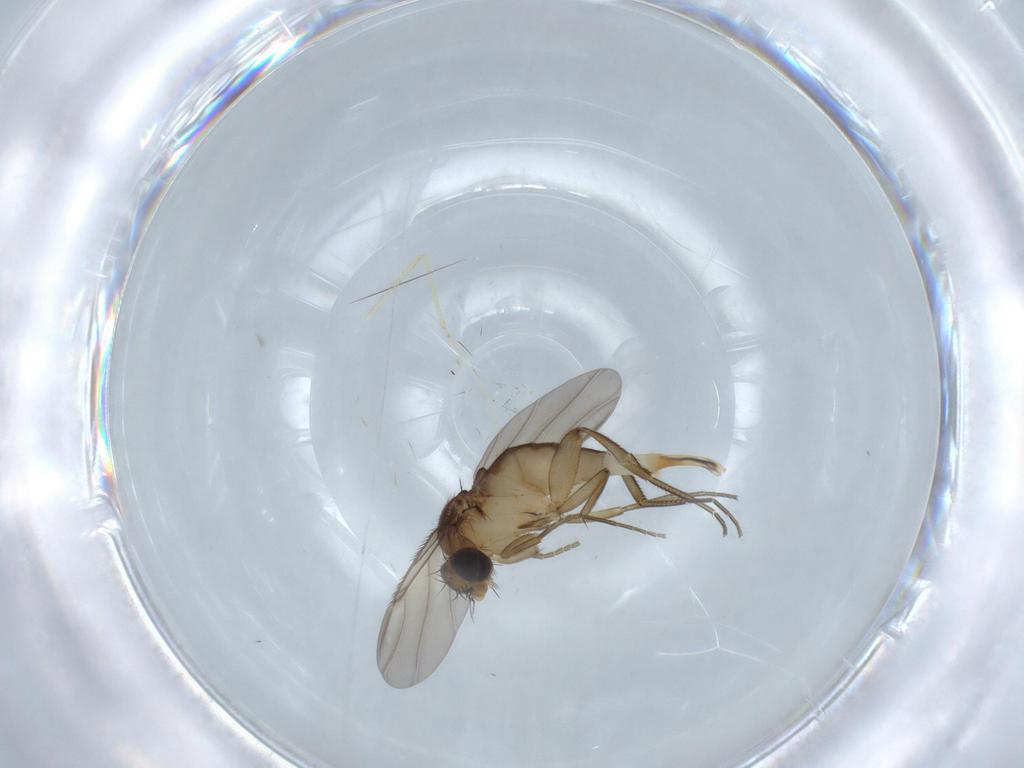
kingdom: Animalia
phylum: Arthropoda
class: Insecta
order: Diptera
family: Phoridae
